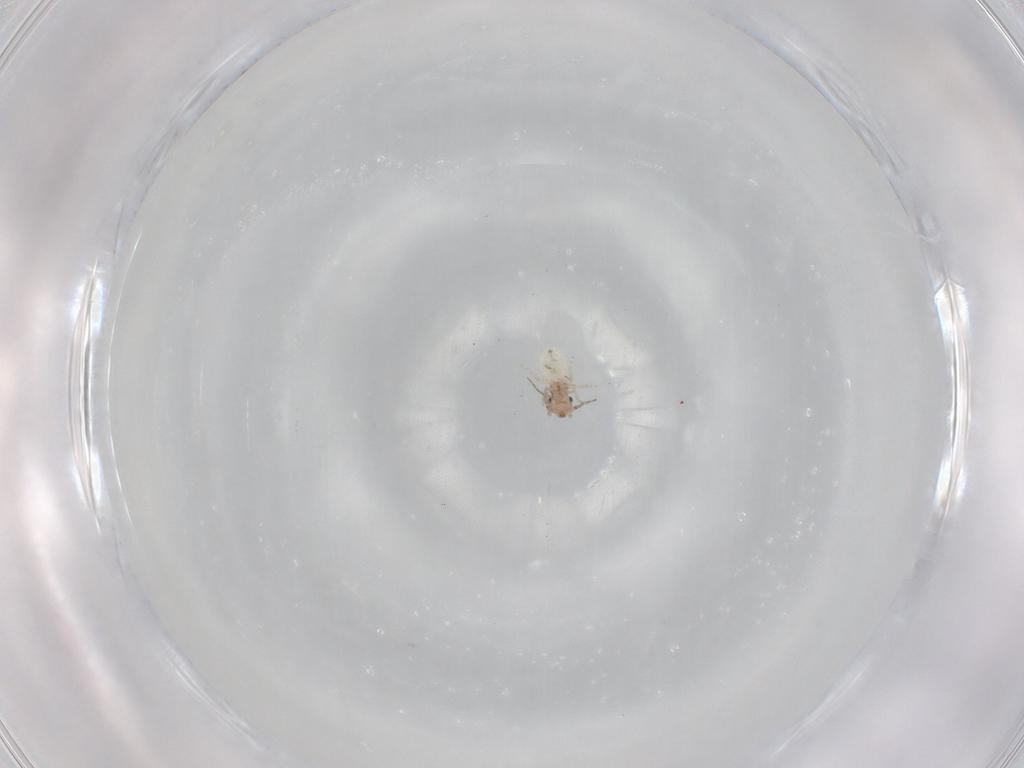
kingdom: Animalia
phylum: Arthropoda
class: Insecta
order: Psocodea
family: Lepidopsocidae
